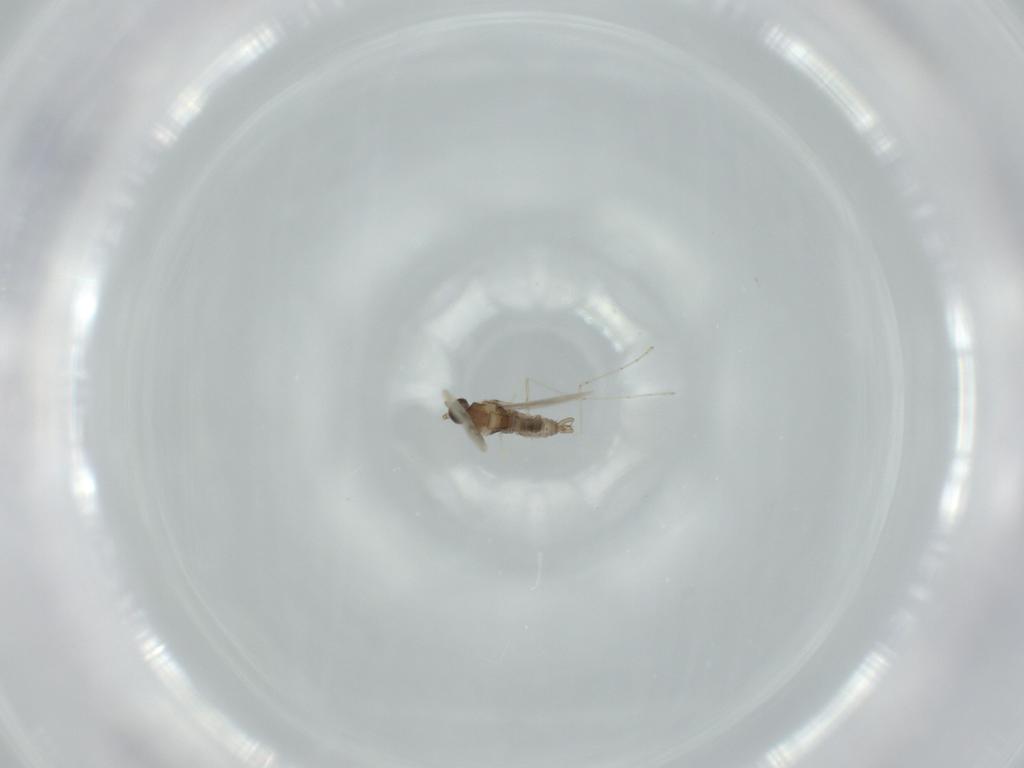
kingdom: Animalia
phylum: Arthropoda
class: Insecta
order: Diptera
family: Cecidomyiidae
